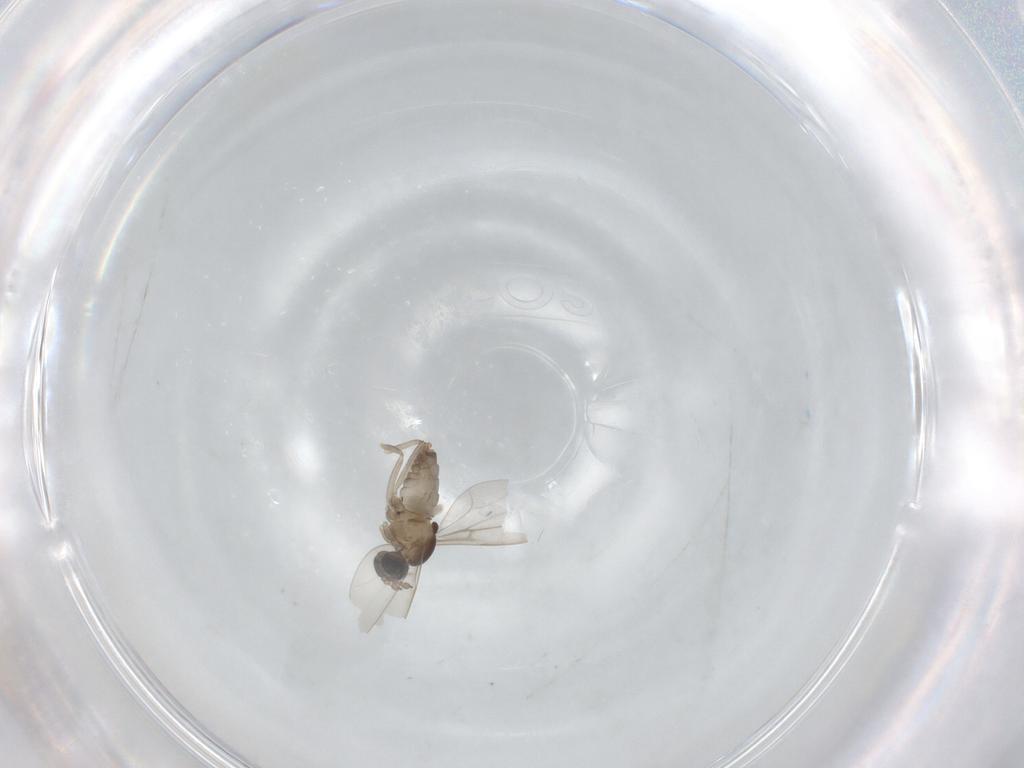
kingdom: Animalia
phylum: Arthropoda
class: Insecta
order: Diptera
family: Cecidomyiidae
